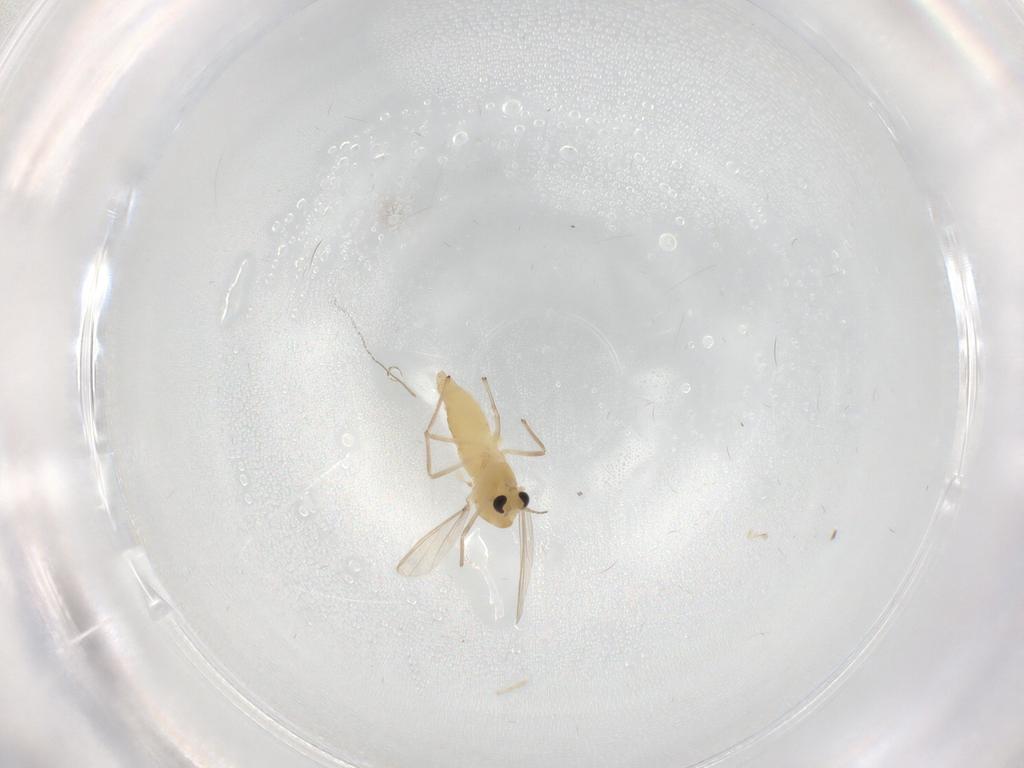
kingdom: Animalia
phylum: Arthropoda
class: Insecta
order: Diptera
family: Chironomidae
